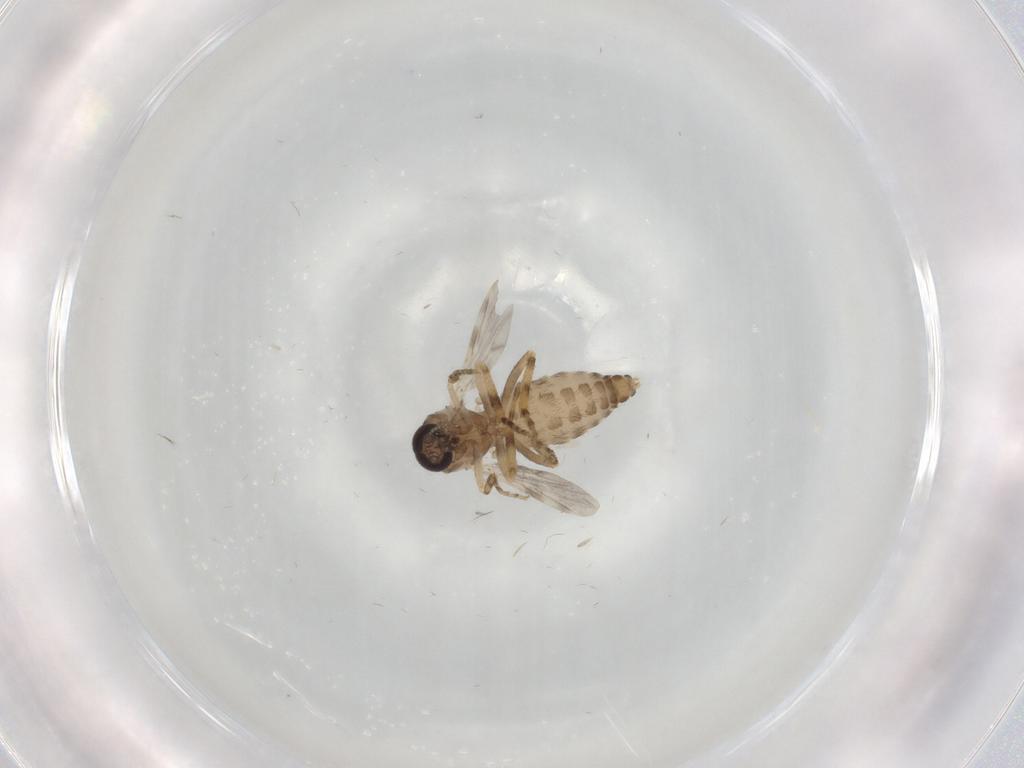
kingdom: Animalia
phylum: Arthropoda
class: Insecta
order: Diptera
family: Ceratopogonidae
